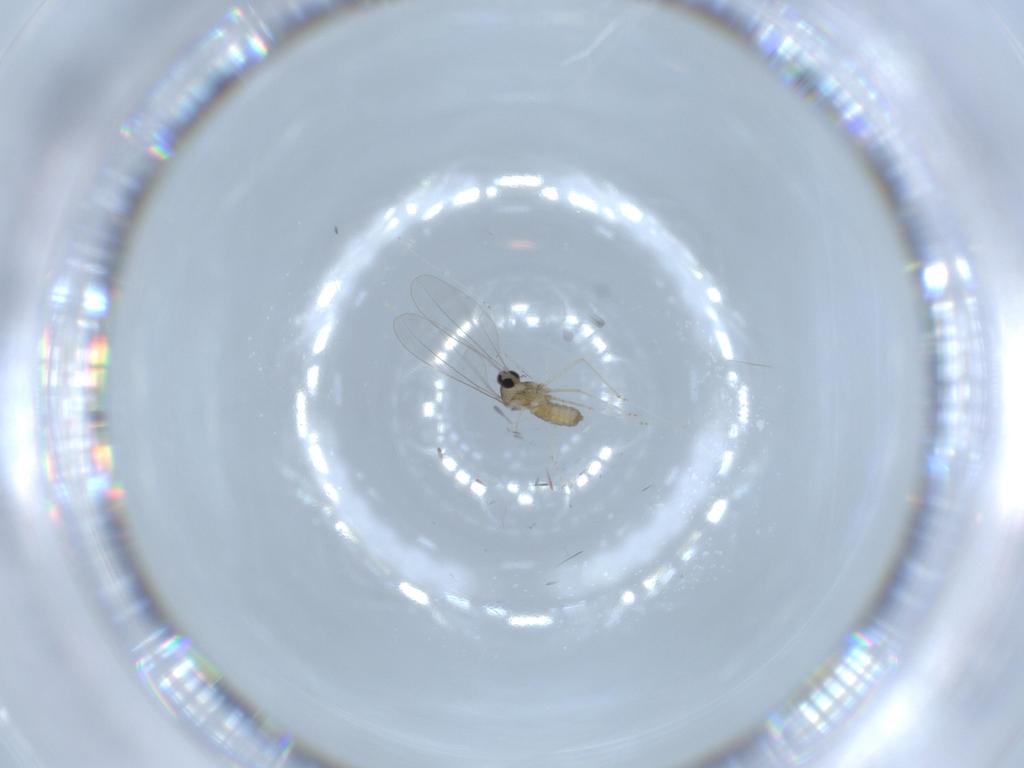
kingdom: Animalia
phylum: Arthropoda
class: Insecta
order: Diptera
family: Cecidomyiidae
